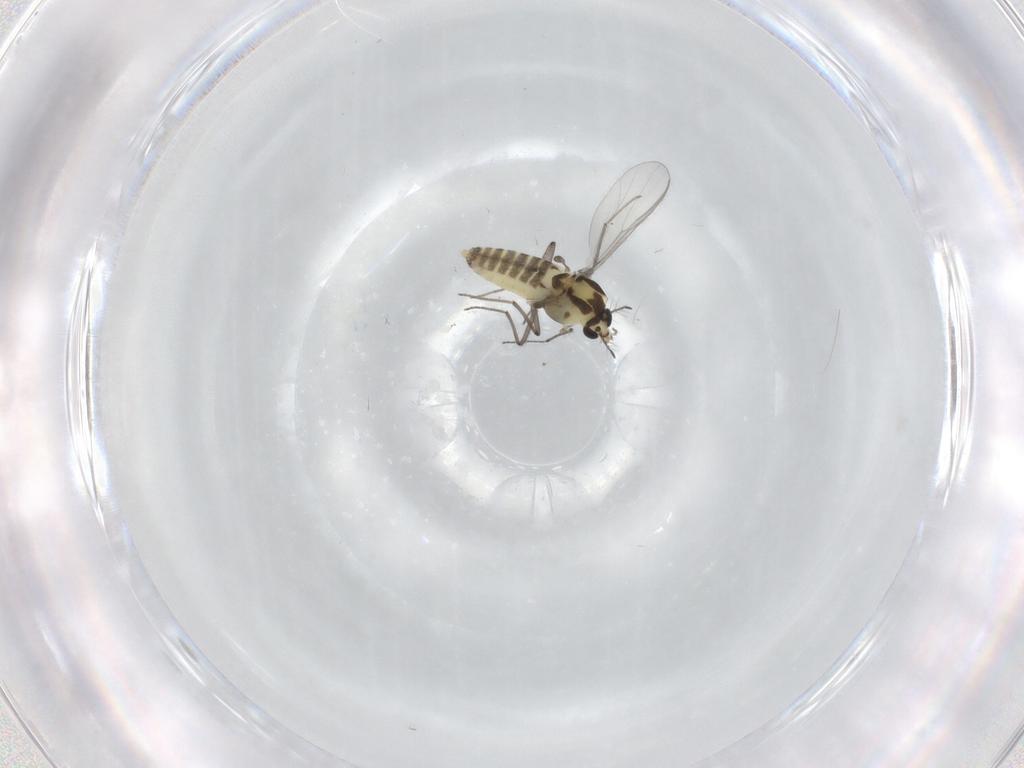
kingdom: Animalia
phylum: Arthropoda
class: Insecta
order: Diptera
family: Chironomidae
